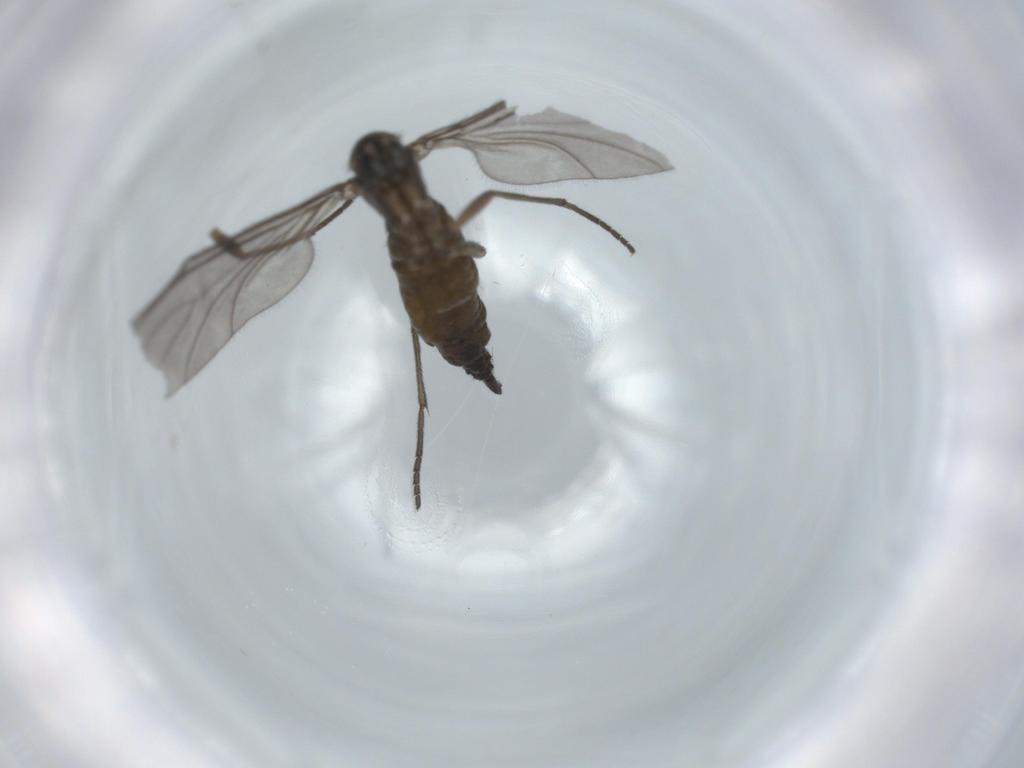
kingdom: Animalia
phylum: Arthropoda
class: Insecta
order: Diptera
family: Sciaridae
